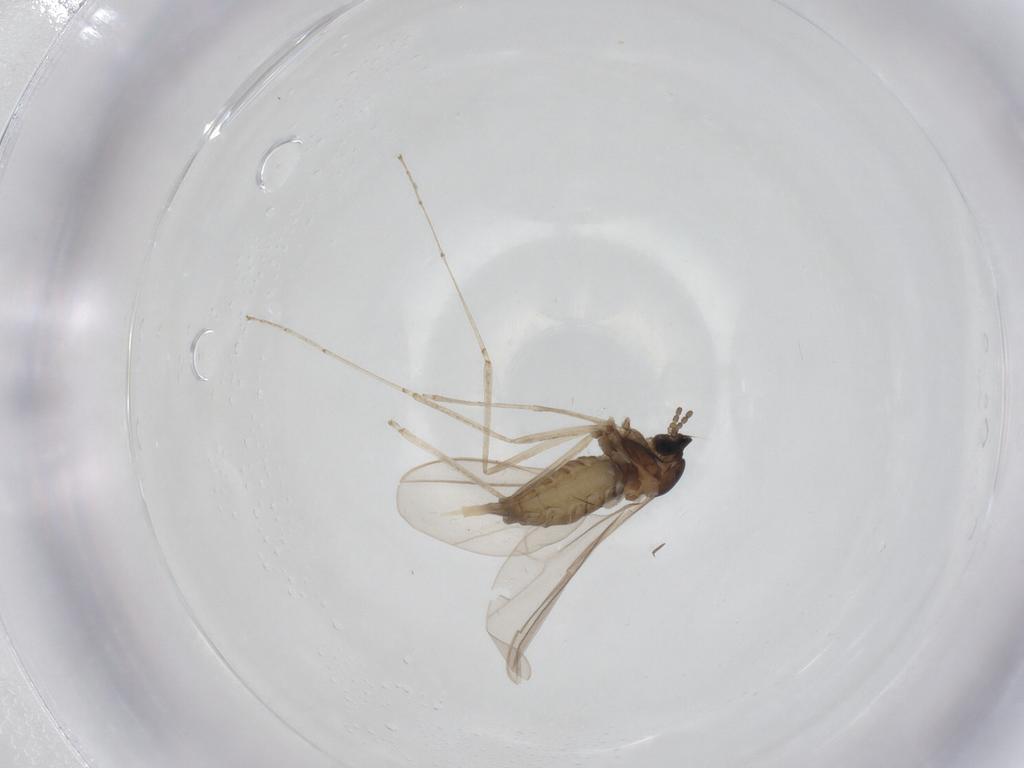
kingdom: Animalia
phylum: Arthropoda
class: Insecta
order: Diptera
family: Cecidomyiidae
